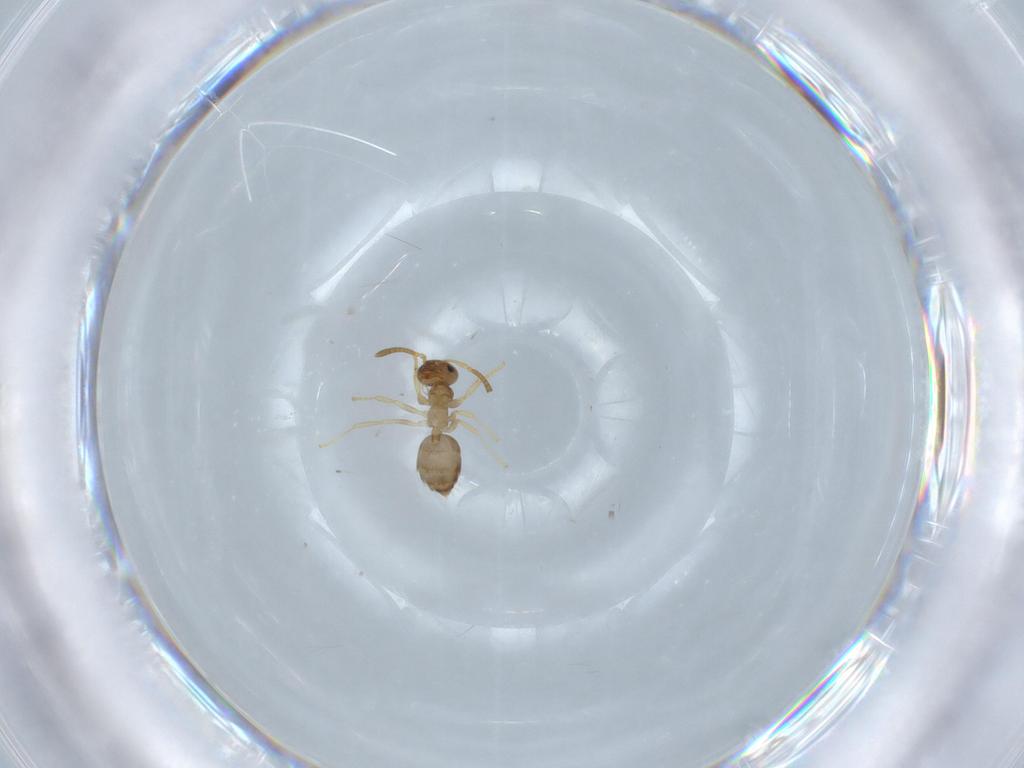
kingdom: Animalia
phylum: Arthropoda
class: Insecta
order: Hymenoptera
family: Formicidae
